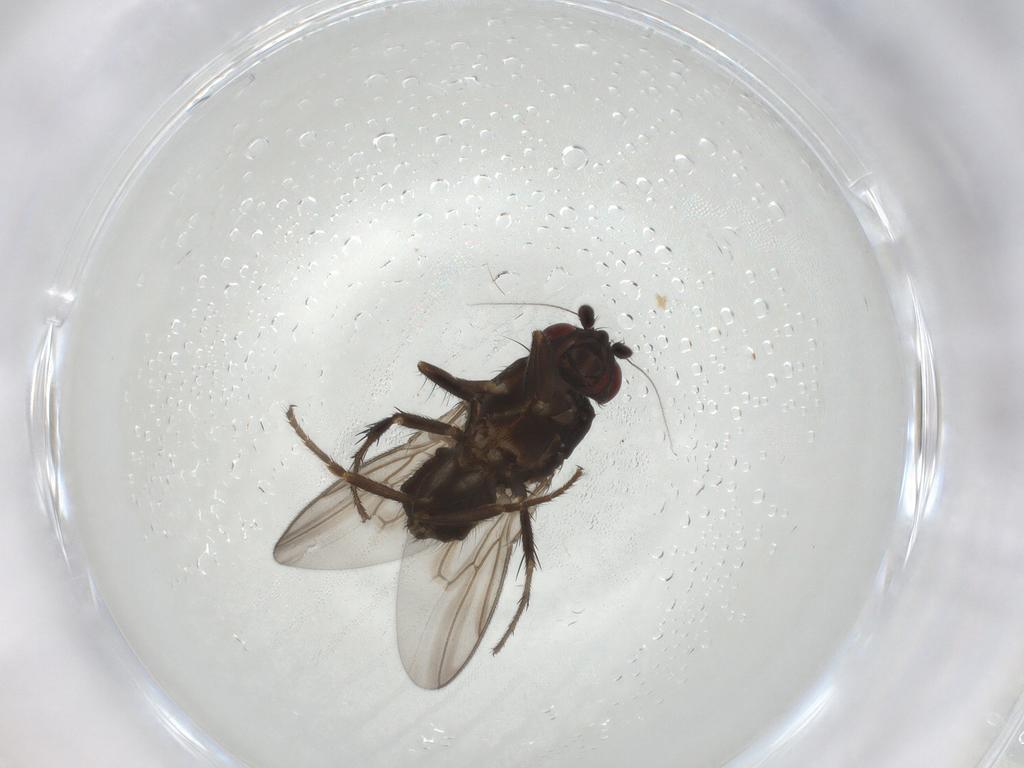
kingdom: Animalia
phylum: Arthropoda
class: Insecta
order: Diptera
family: Sphaeroceridae
